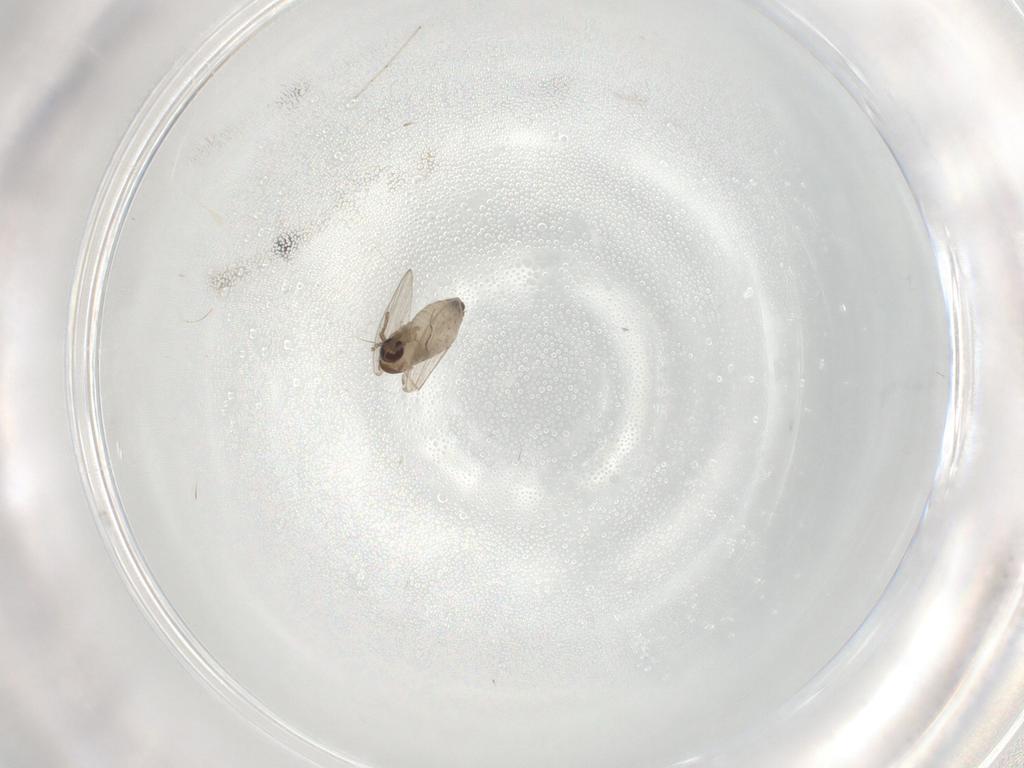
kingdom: Animalia
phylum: Arthropoda
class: Insecta
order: Diptera
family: Psychodidae
